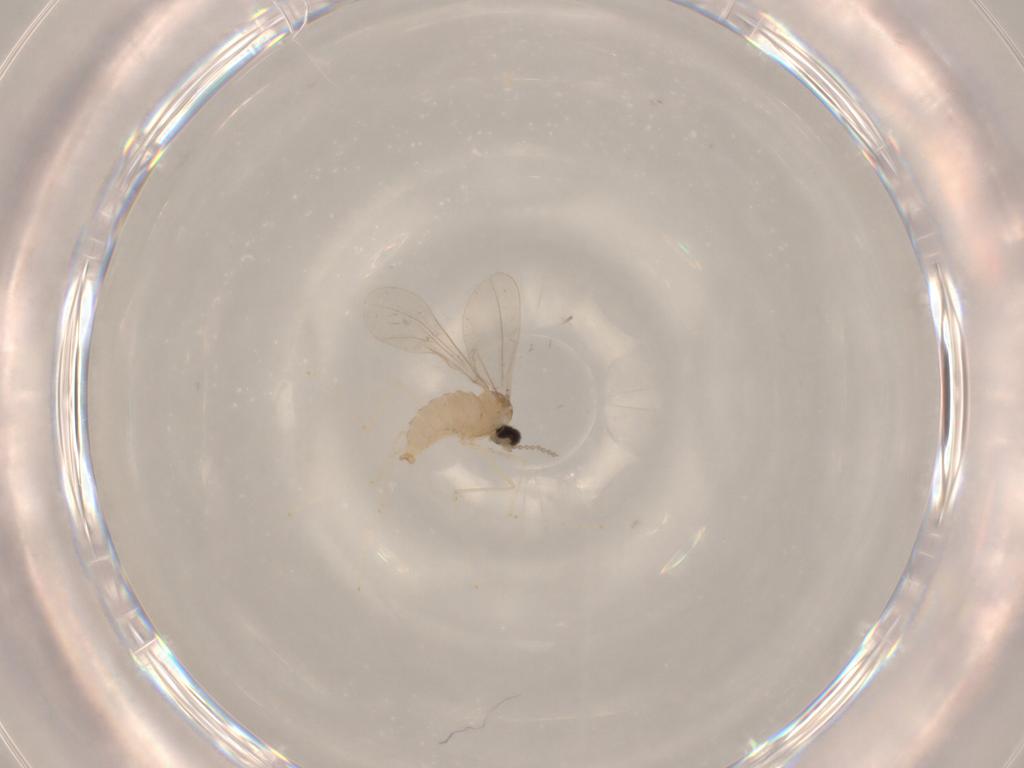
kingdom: Animalia
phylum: Arthropoda
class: Insecta
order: Diptera
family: Cecidomyiidae
